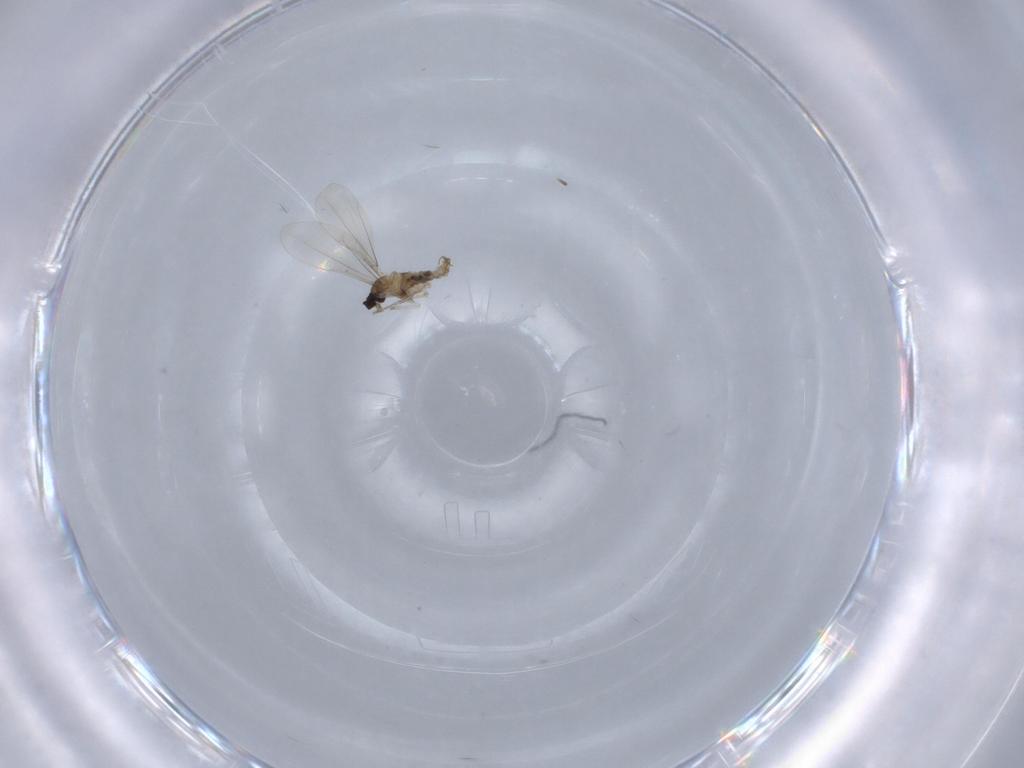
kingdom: Animalia
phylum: Arthropoda
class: Insecta
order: Diptera
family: Cecidomyiidae
